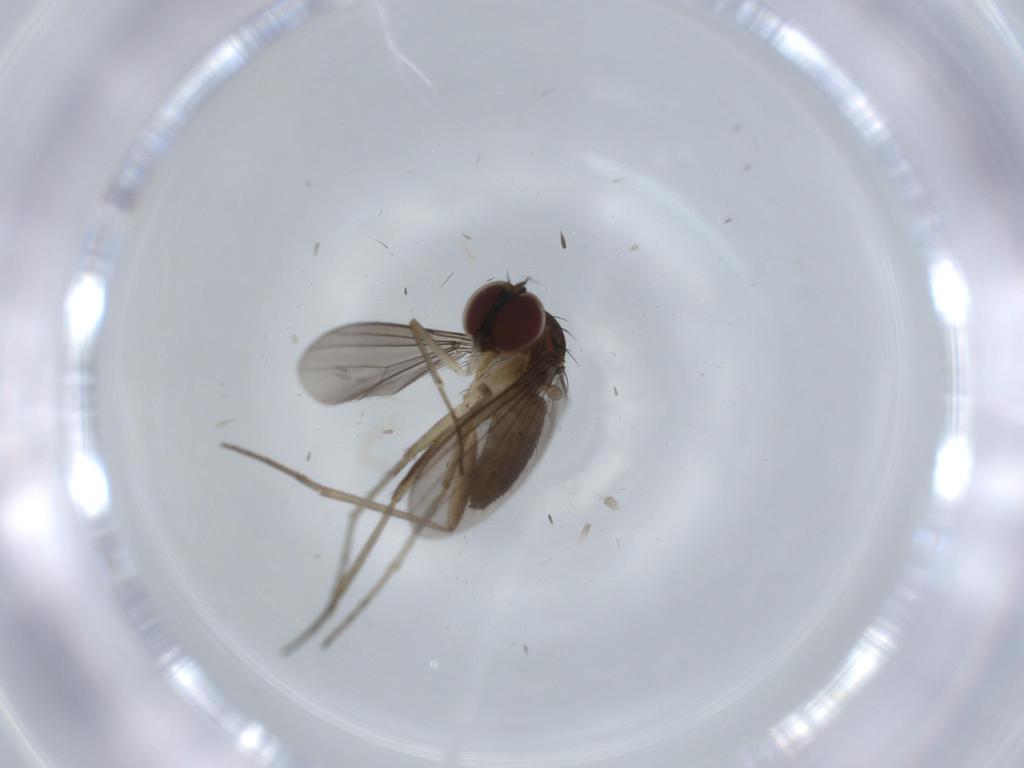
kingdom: Animalia
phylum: Arthropoda
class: Insecta
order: Diptera
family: Dolichopodidae
